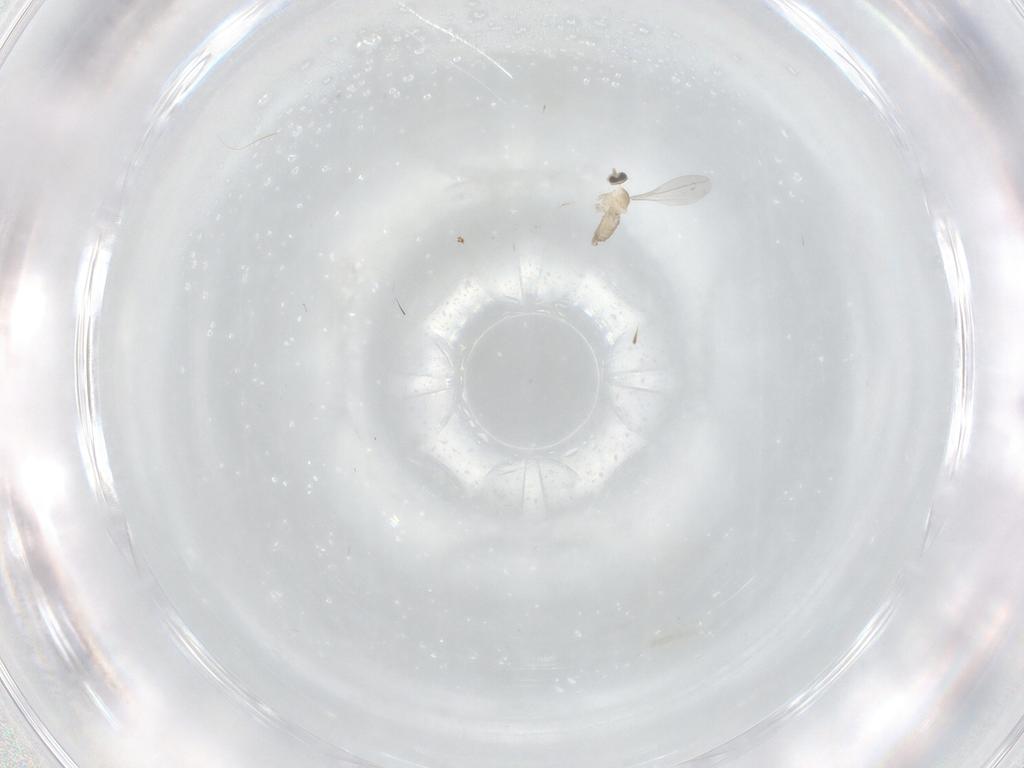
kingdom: Animalia
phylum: Arthropoda
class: Insecta
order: Diptera
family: Cecidomyiidae
